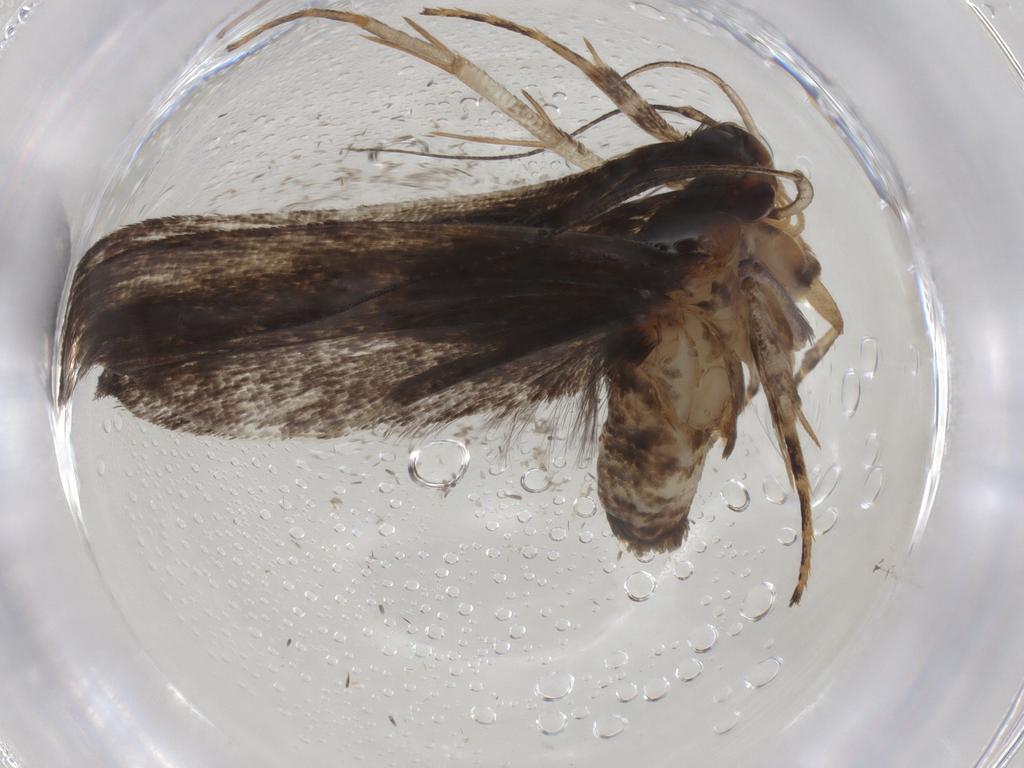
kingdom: Animalia
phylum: Arthropoda
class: Insecta
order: Lepidoptera
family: Gelechiidae
